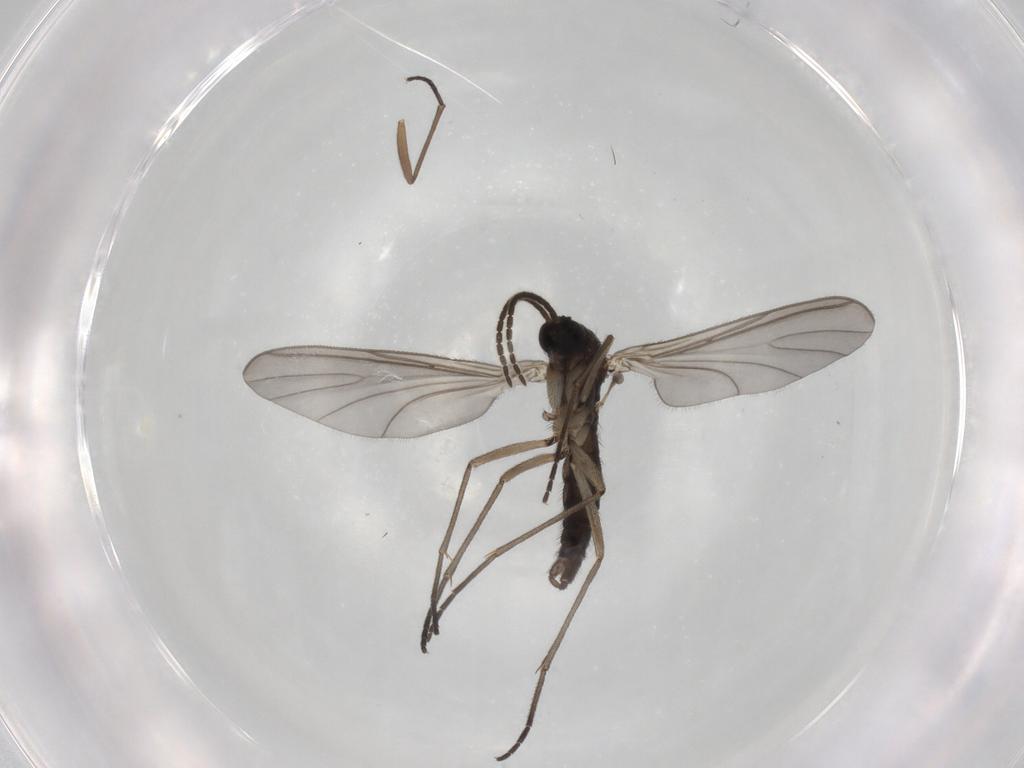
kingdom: Animalia
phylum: Arthropoda
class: Insecta
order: Diptera
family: Sciaridae
